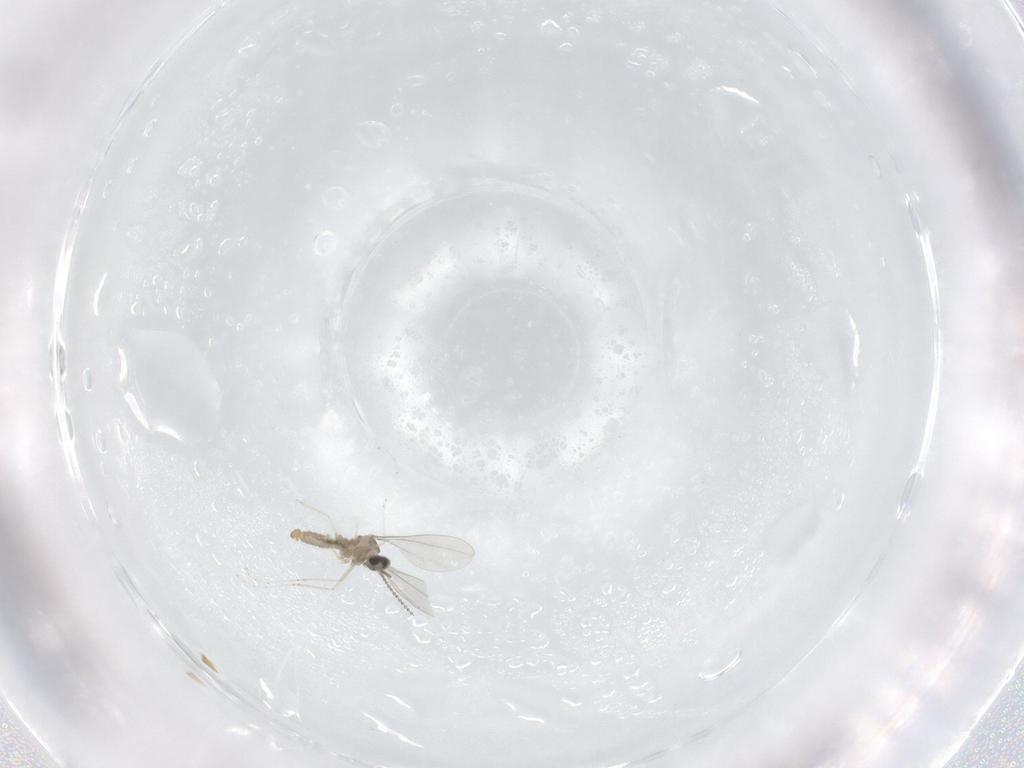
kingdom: Animalia
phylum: Arthropoda
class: Insecta
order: Diptera
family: Cecidomyiidae
